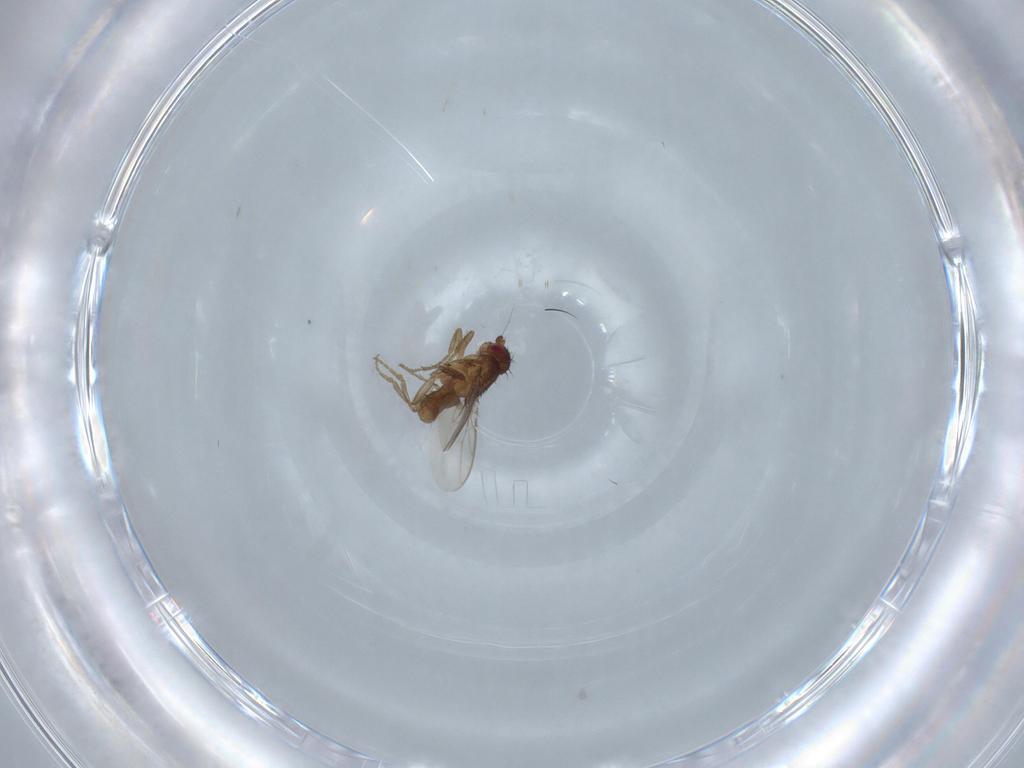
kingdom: Animalia
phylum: Arthropoda
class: Insecta
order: Diptera
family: Sphaeroceridae
